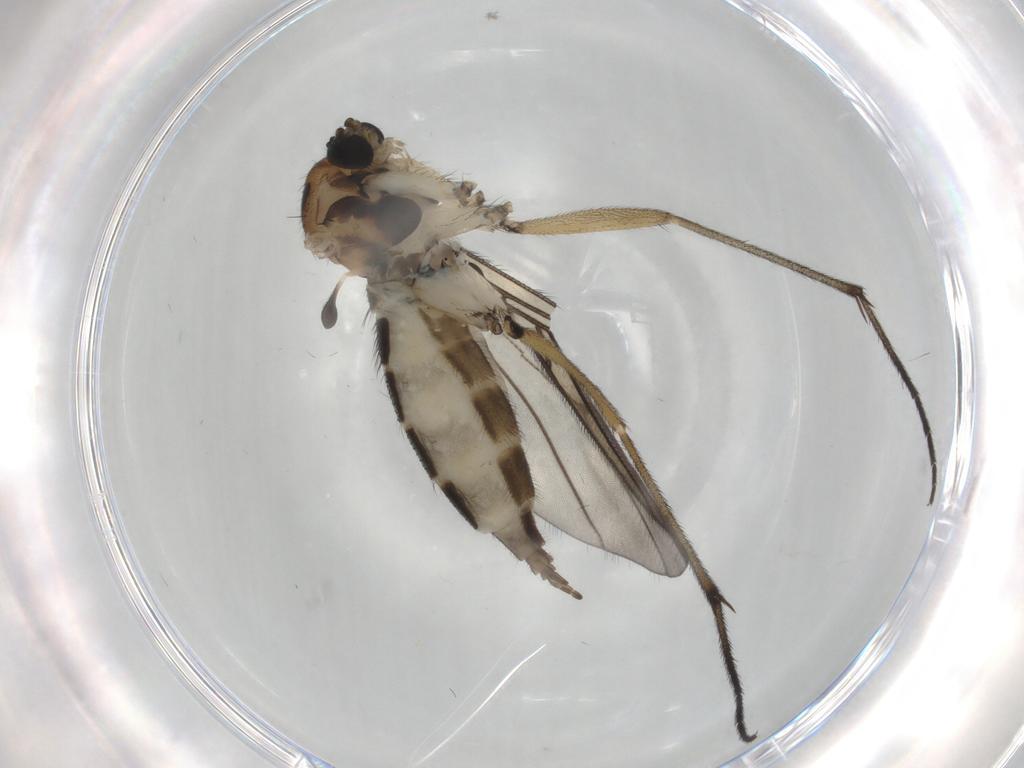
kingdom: Animalia
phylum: Arthropoda
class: Insecta
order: Diptera
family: Sciaridae
